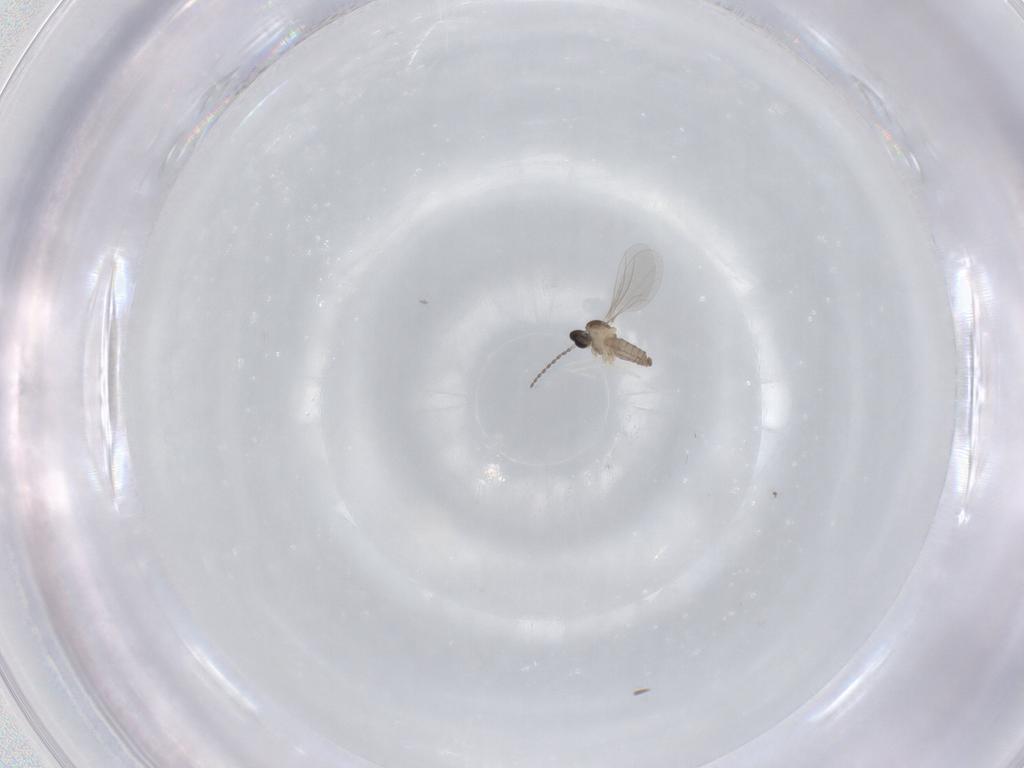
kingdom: Animalia
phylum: Arthropoda
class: Insecta
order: Diptera
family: Cecidomyiidae
